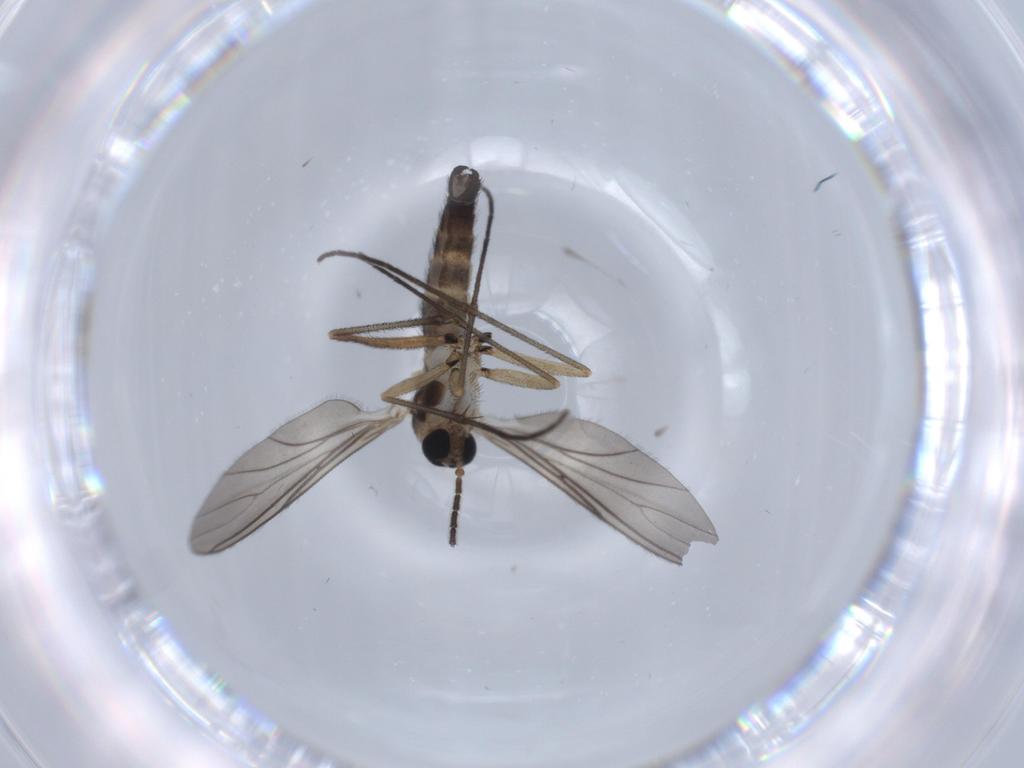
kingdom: Animalia
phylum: Arthropoda
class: Insecta
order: Diptera
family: Sciaridae
